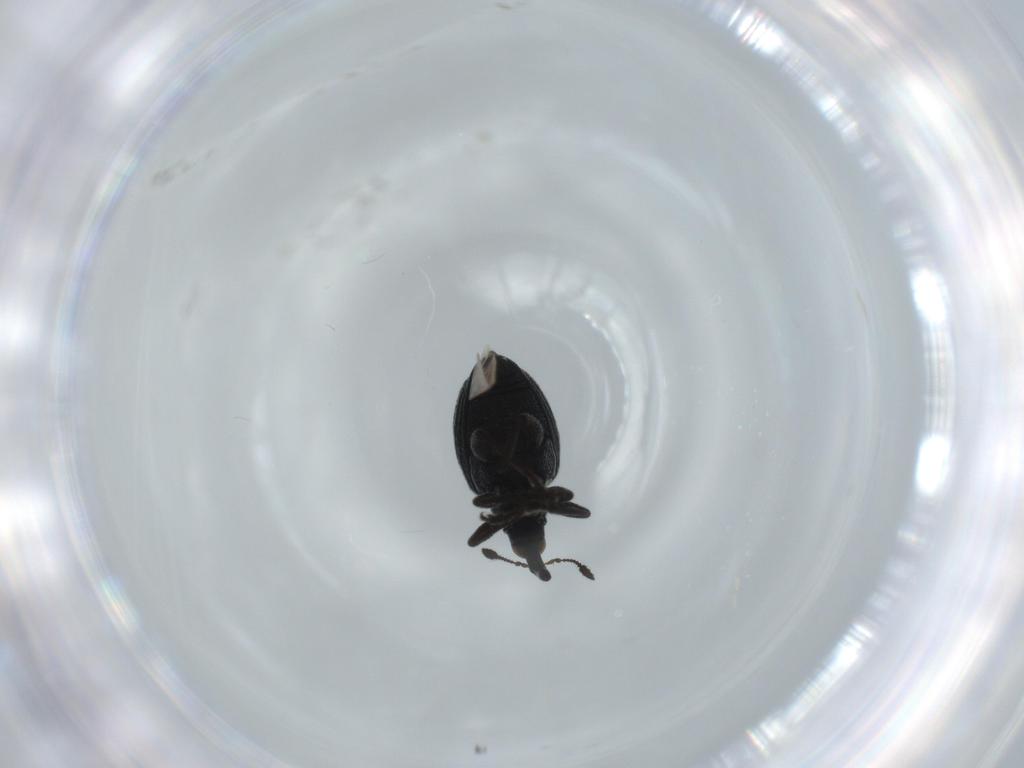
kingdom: Animalia
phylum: Arthropoda
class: Insecta
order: Coleoptera
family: Brentidae
